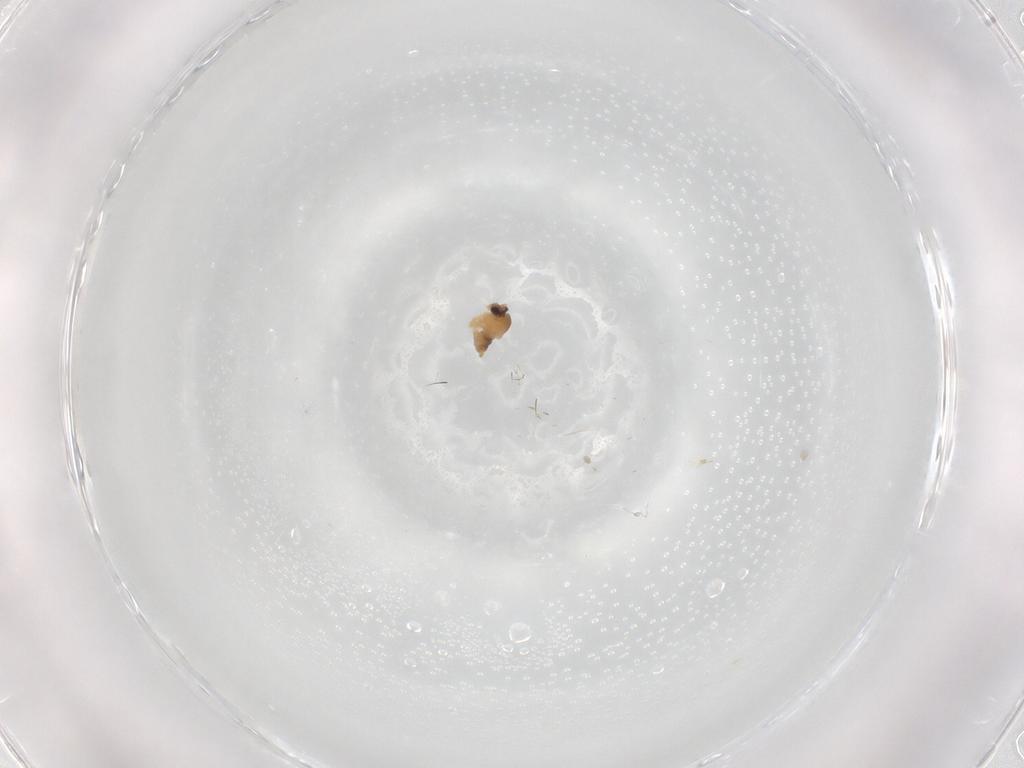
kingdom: Animalia
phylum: Arthropoda
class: Insecta
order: Diptera
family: Cecidomyiidae
